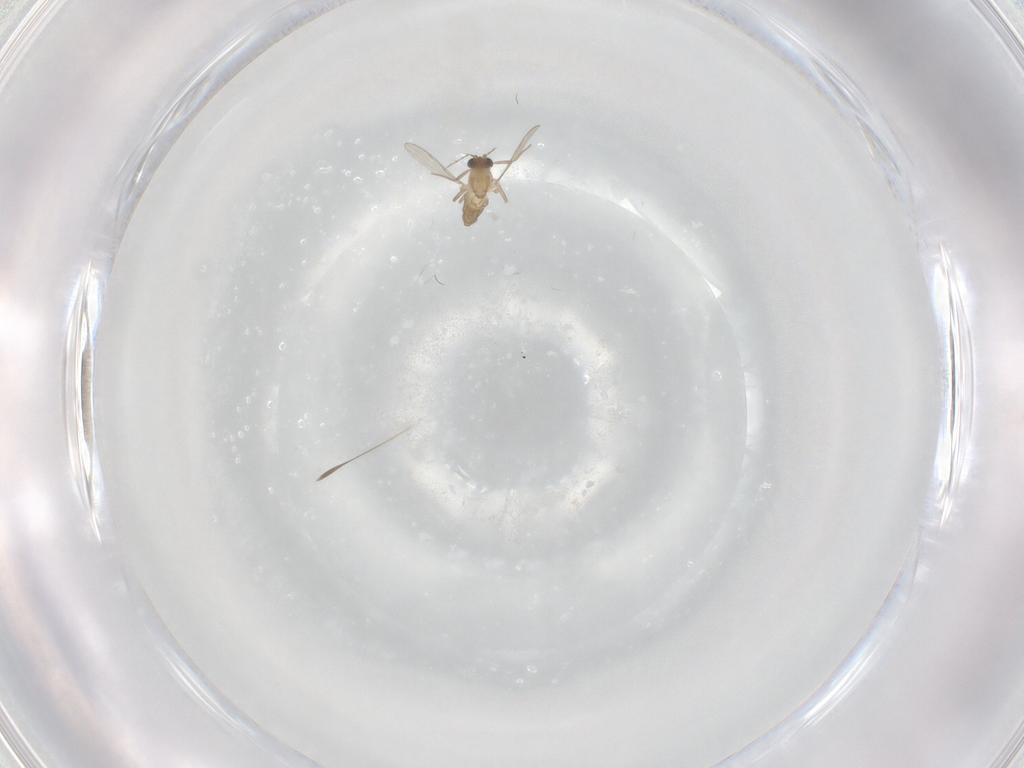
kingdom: Animalia
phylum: Arthropoda
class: Insecta
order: Diptera
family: Chironomidae
